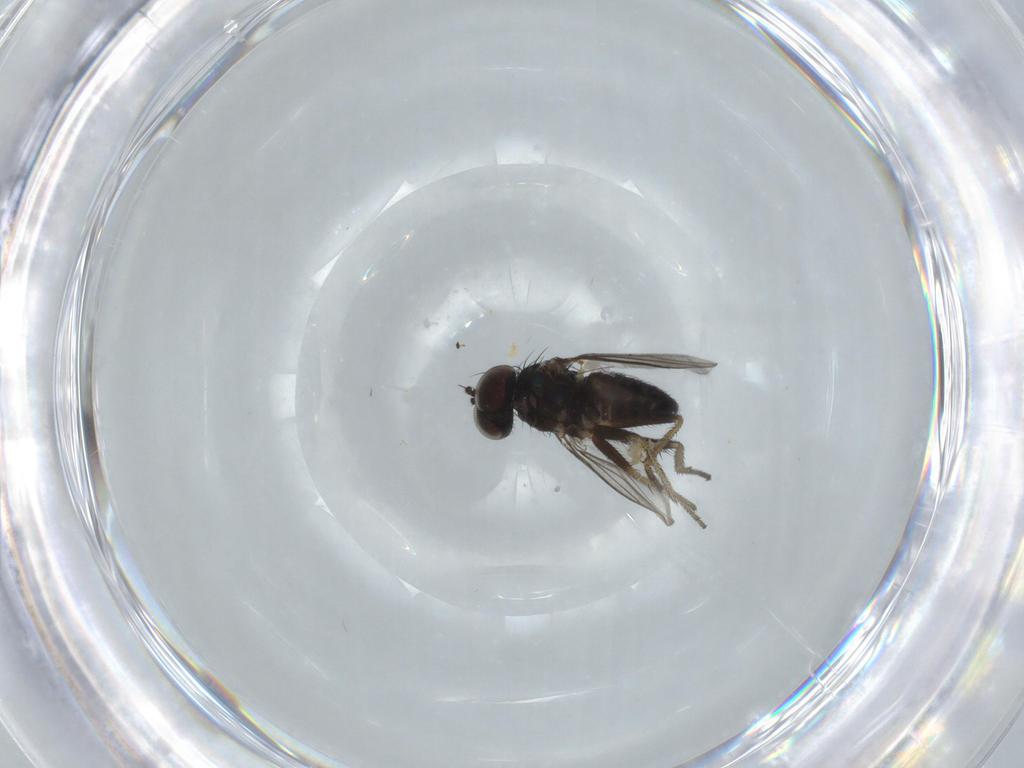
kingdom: Animalia
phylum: Arthropoda
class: Insecta
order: Diptera
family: Dolichopodidae
